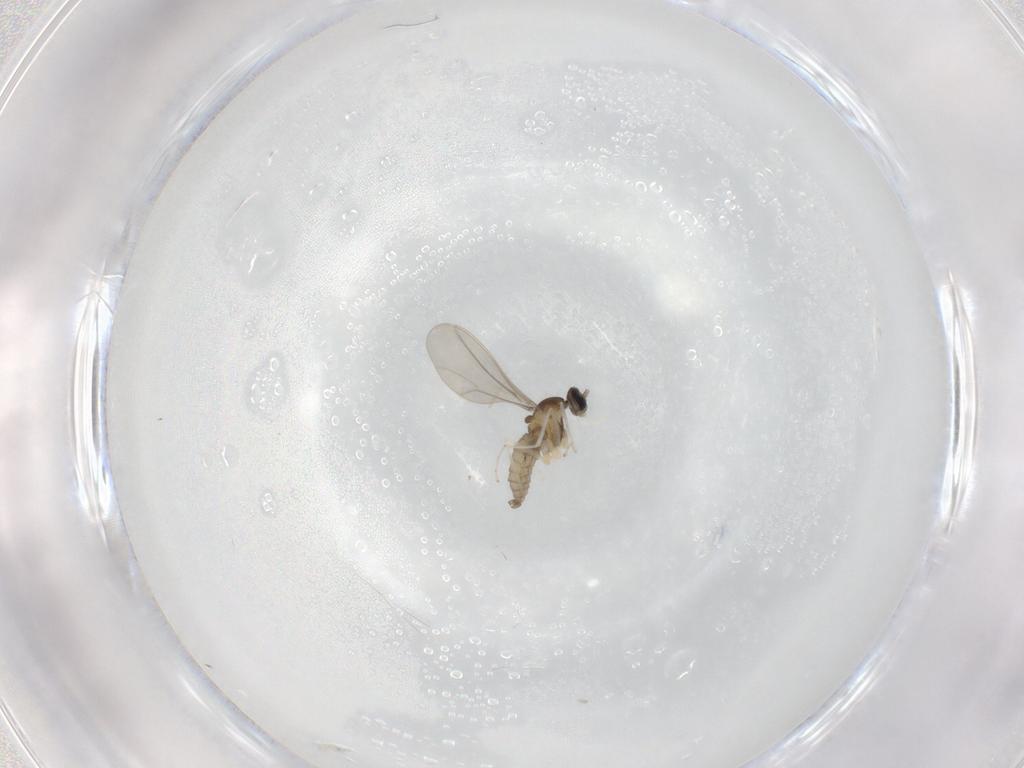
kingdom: Animalia
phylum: Arthropoda
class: Insecta
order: Diptera
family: Cecidomyiidae
